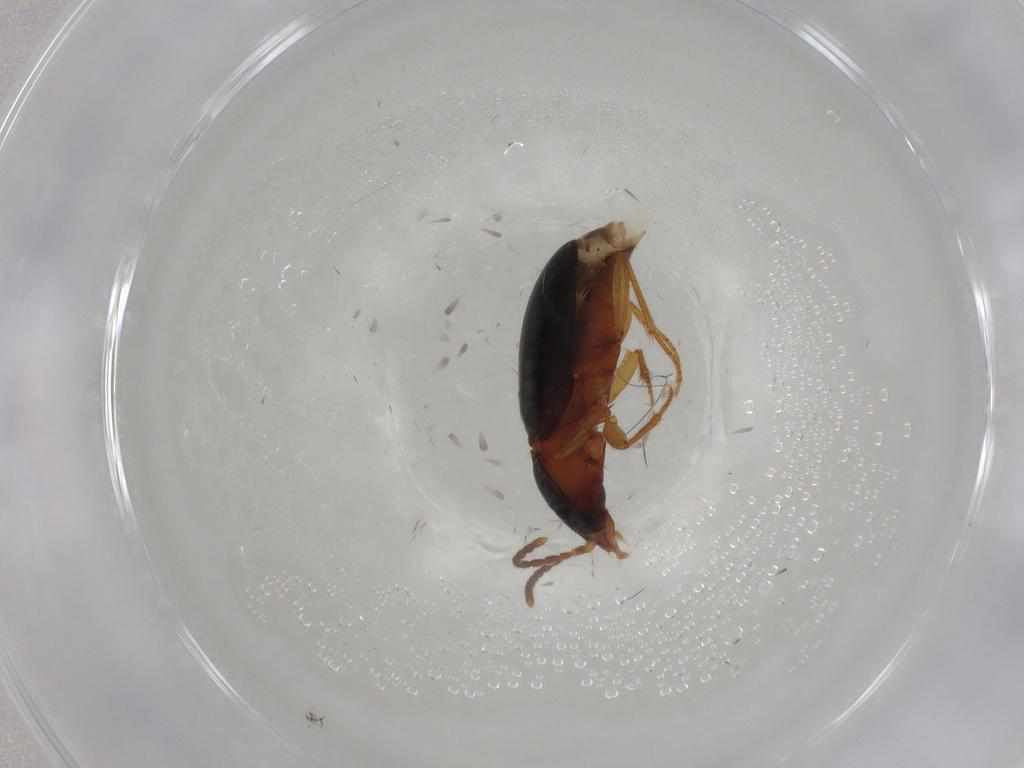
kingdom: Animalia
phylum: Arthropoda
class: Insecta
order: Coleoptera
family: Carabidae
